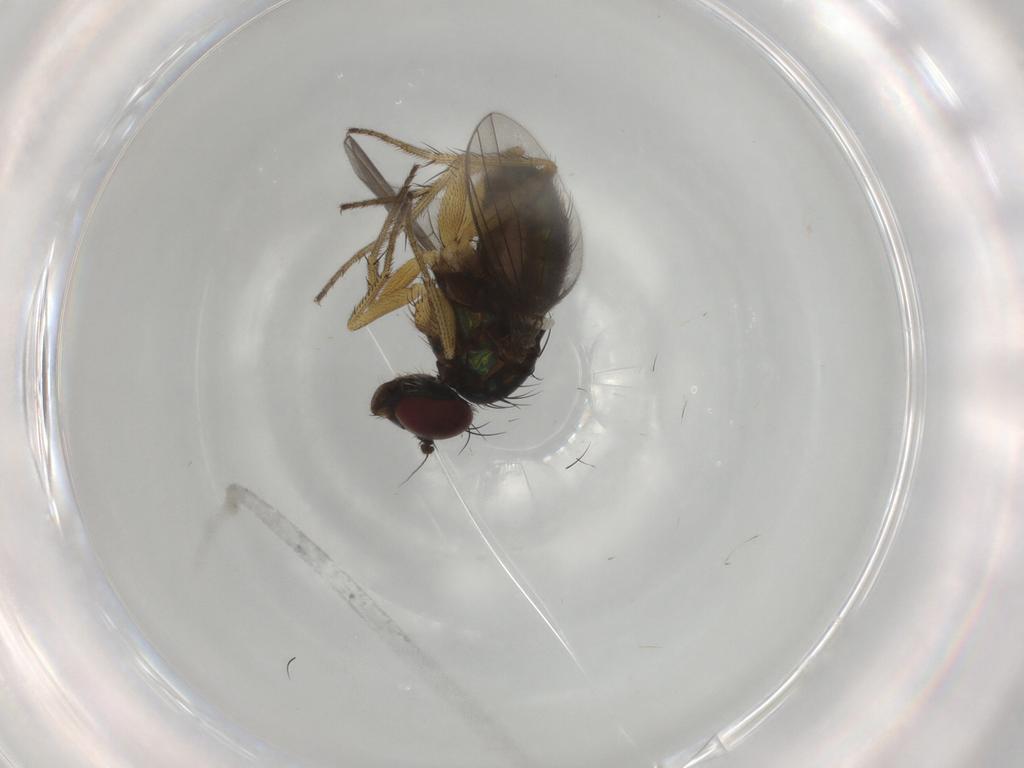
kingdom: Animalia
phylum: Arthropoda
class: Insecta
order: Diptera
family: Dolichopodidae
